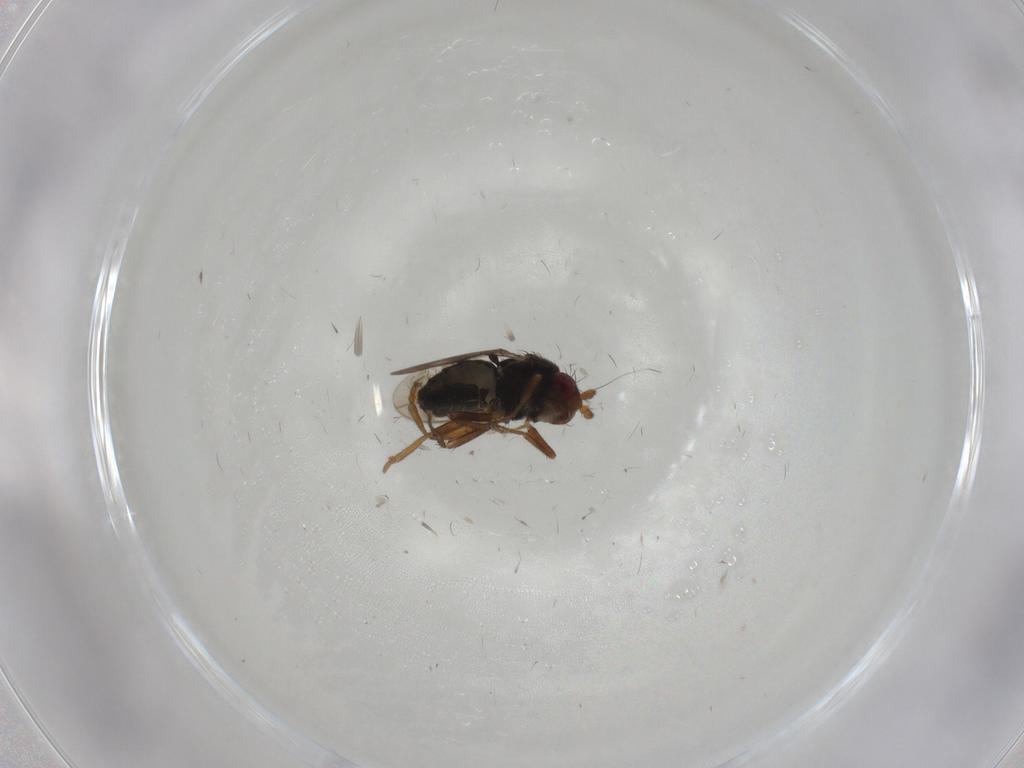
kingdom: Animalia
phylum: Arthropoda
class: Insecta
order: Diptera
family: Sphaeroceridae
